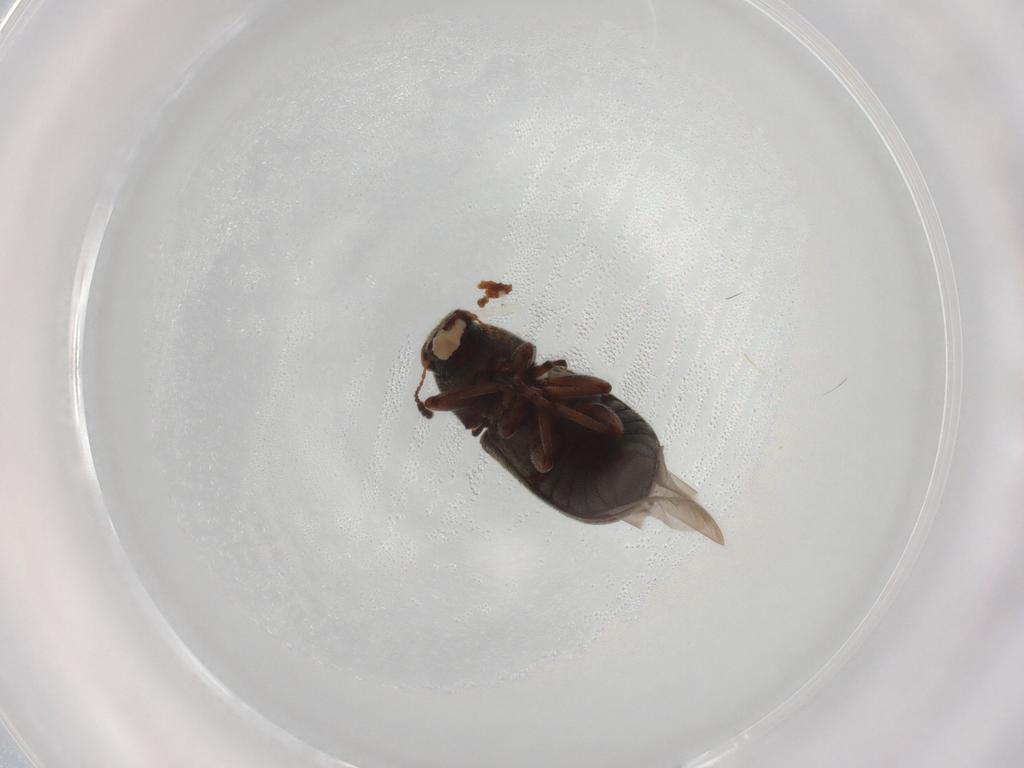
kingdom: Animalia
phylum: Arthropoda
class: Insecta
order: Coleoptera
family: Anthribidae
